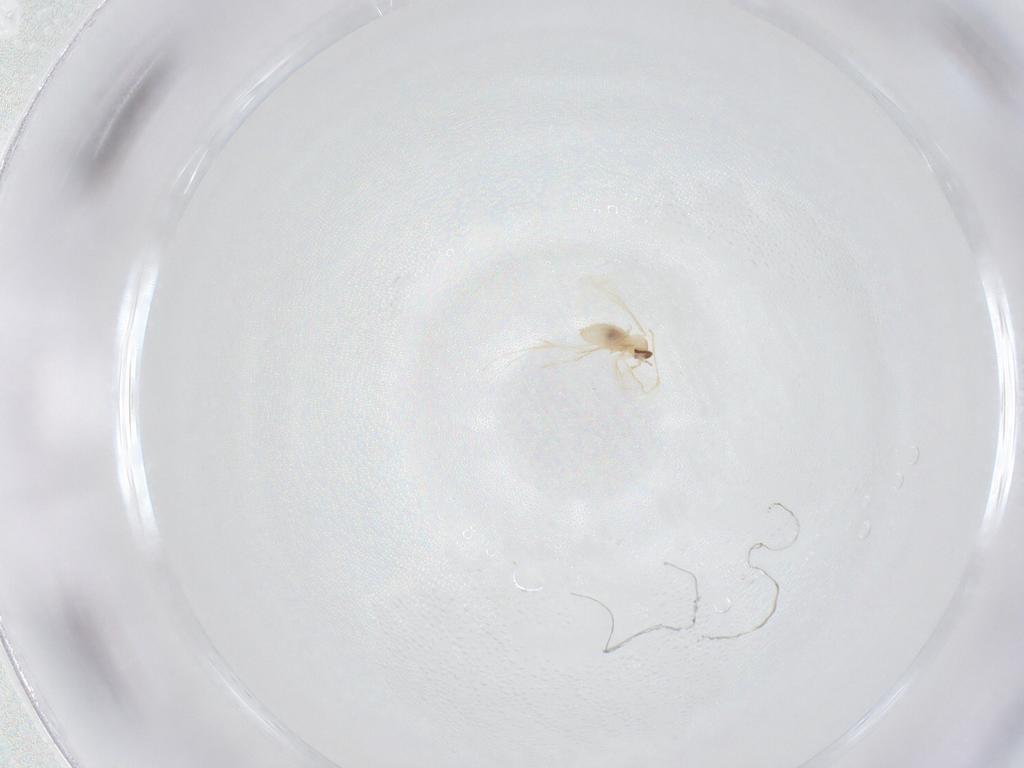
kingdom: Animalia
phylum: Arthropoda
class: Insecta
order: Diptera
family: Cecidomyiidae
